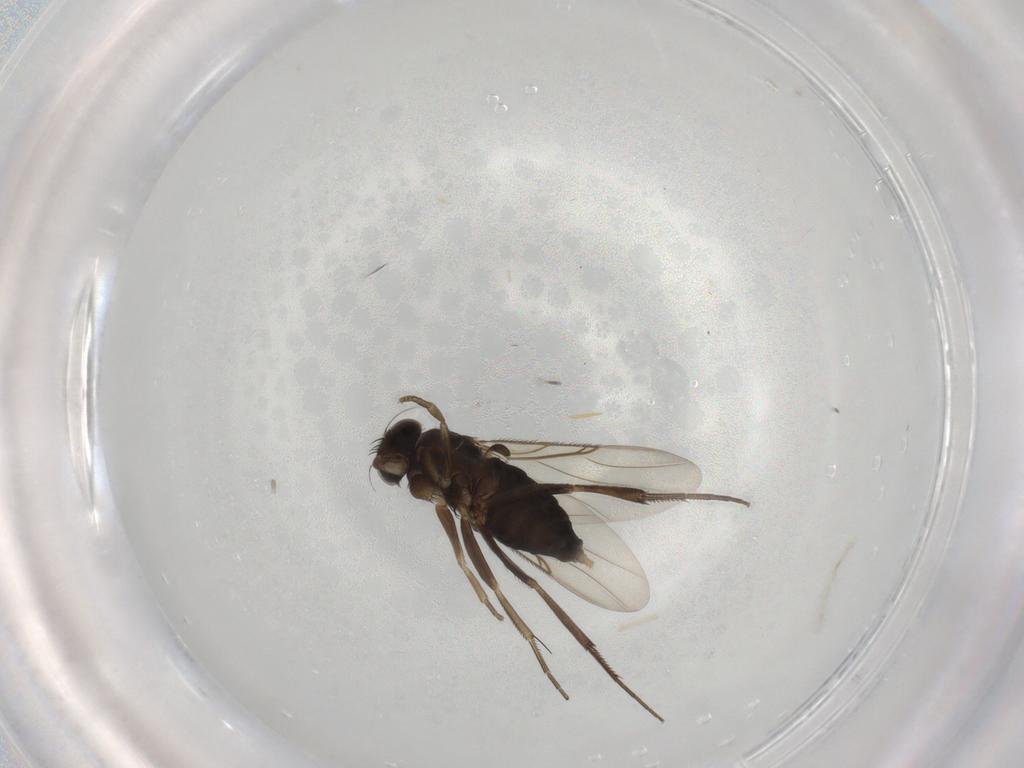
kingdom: Animalia
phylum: Arthropoda
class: Insecta
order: Diptera
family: Phoridae
